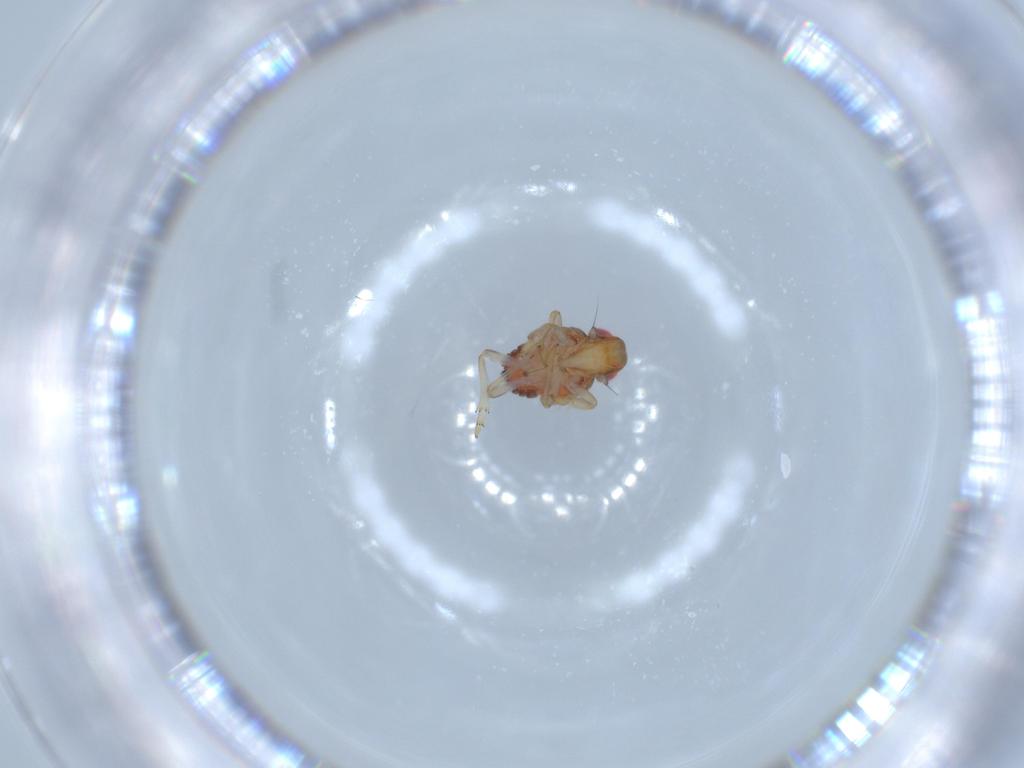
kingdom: Animalia
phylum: Arthropoda
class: Insecta
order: Hemiptera
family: Issidae
